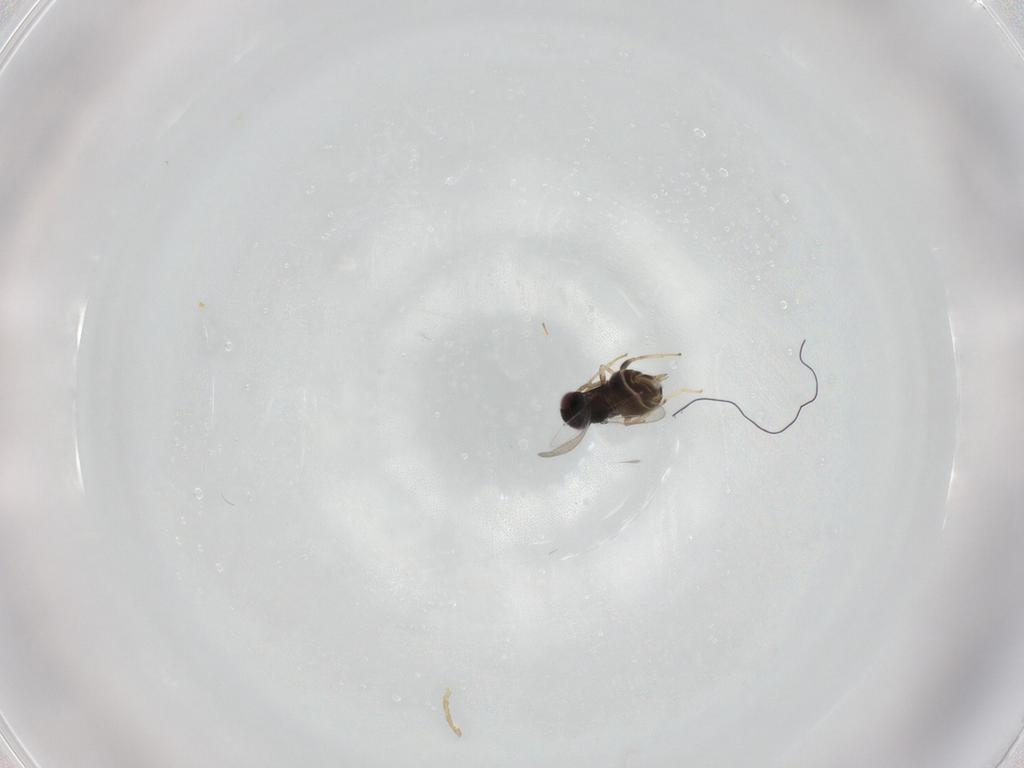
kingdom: Animalia
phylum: Arthropoda
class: Insecta
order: Hymenoptera
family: Aphelinidae
